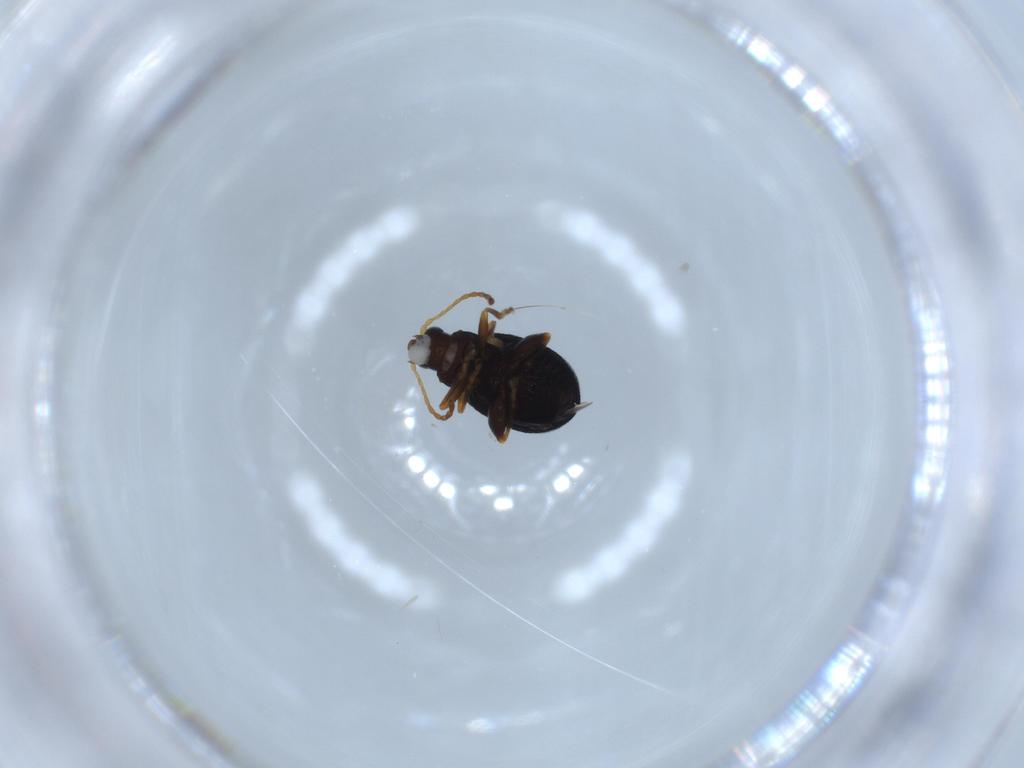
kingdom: Animalia
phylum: Arthropoda
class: Insecta
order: Coleoptera
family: Chrysomelidae
